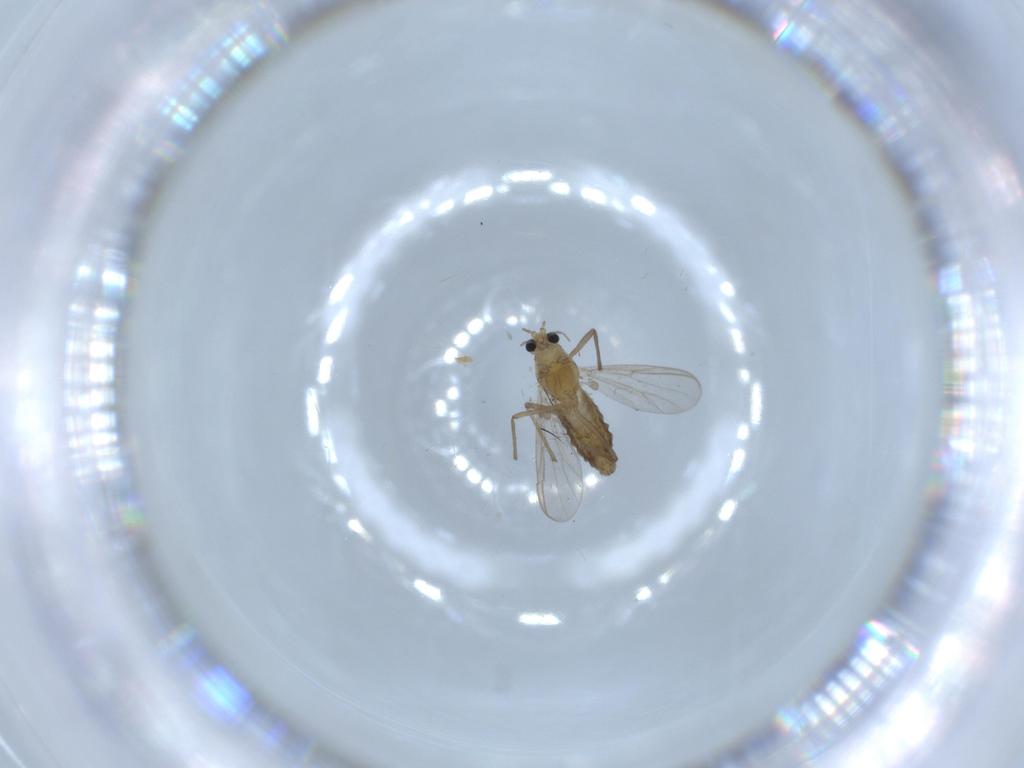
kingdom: Animalia
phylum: Arthropoda
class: Insecta
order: Diptera
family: Chironomidae
